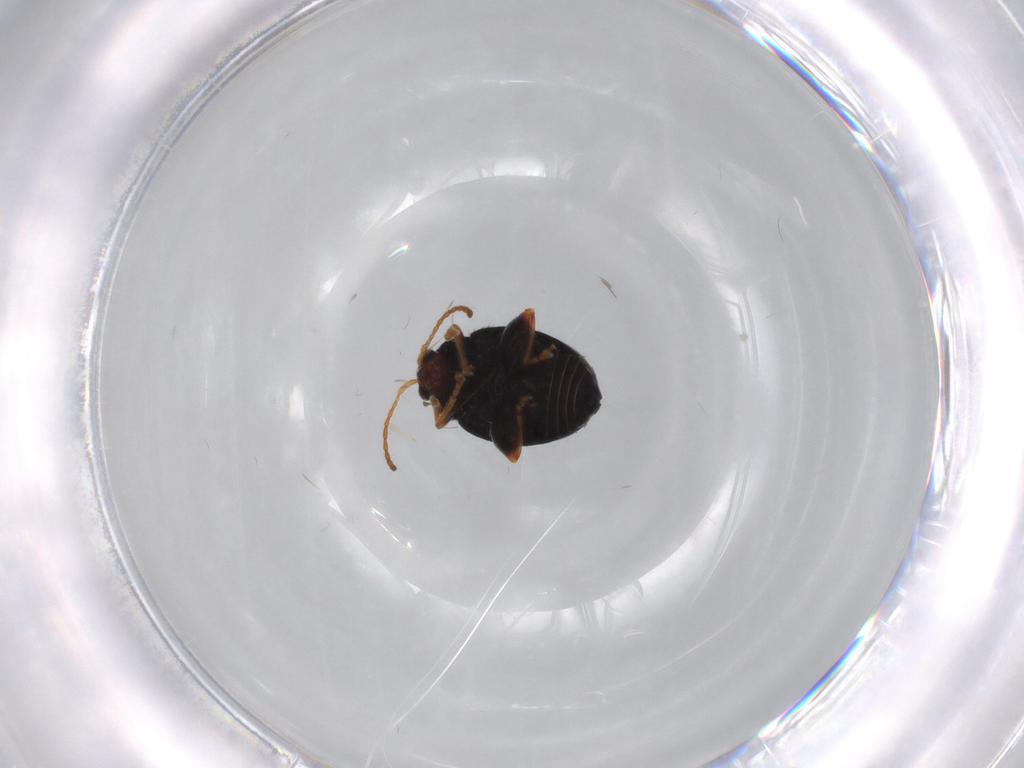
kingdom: Animalia
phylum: Arthropoda
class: Insecta
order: Coleoptera
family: Chrysomelidae
